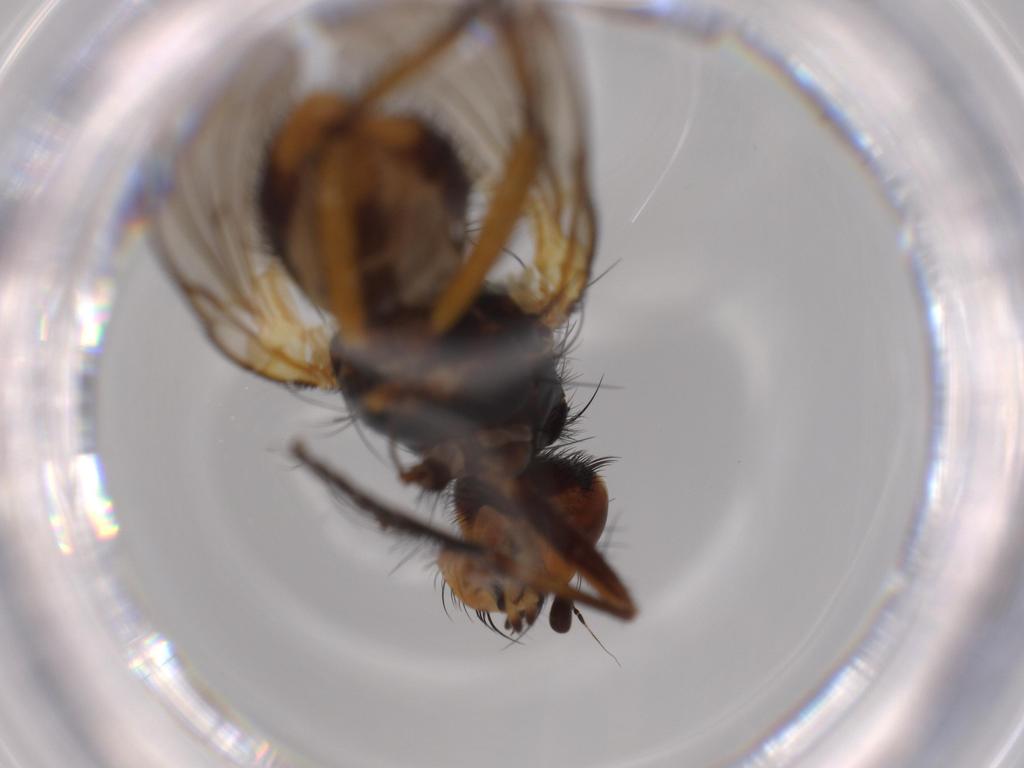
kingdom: Animalia
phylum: Arthropoda
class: Insecta
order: Diptera
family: Anthomyiidae
